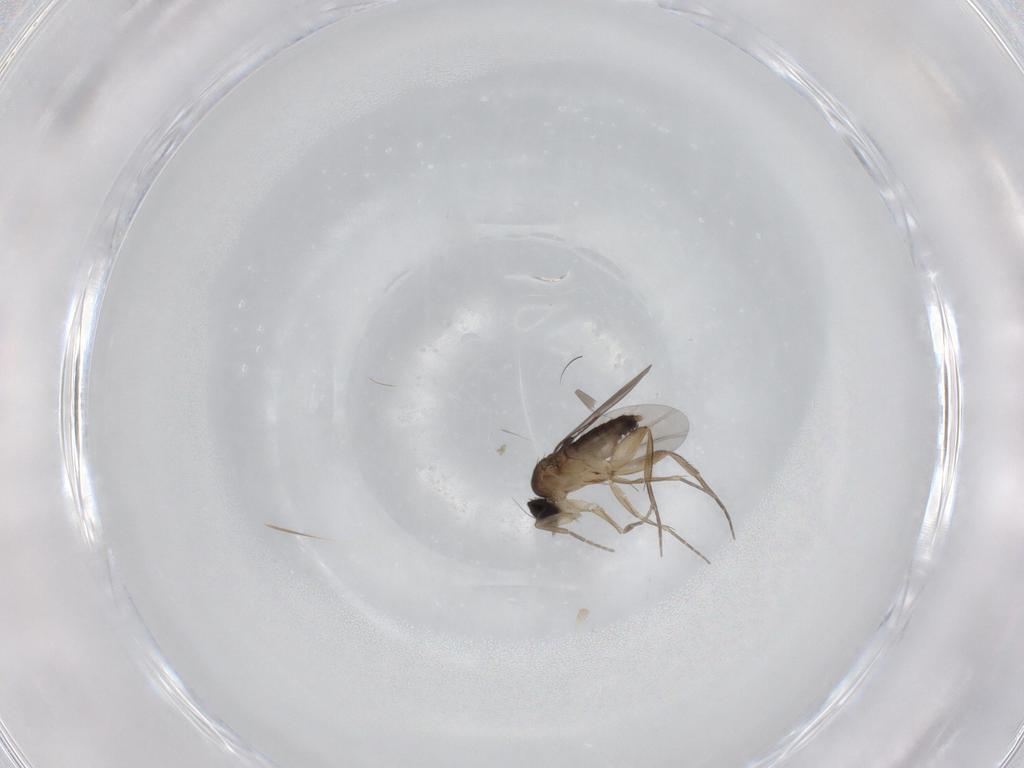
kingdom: Animalia
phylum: Arthropoda
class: Insecta
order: Diptera
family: Phoridae
